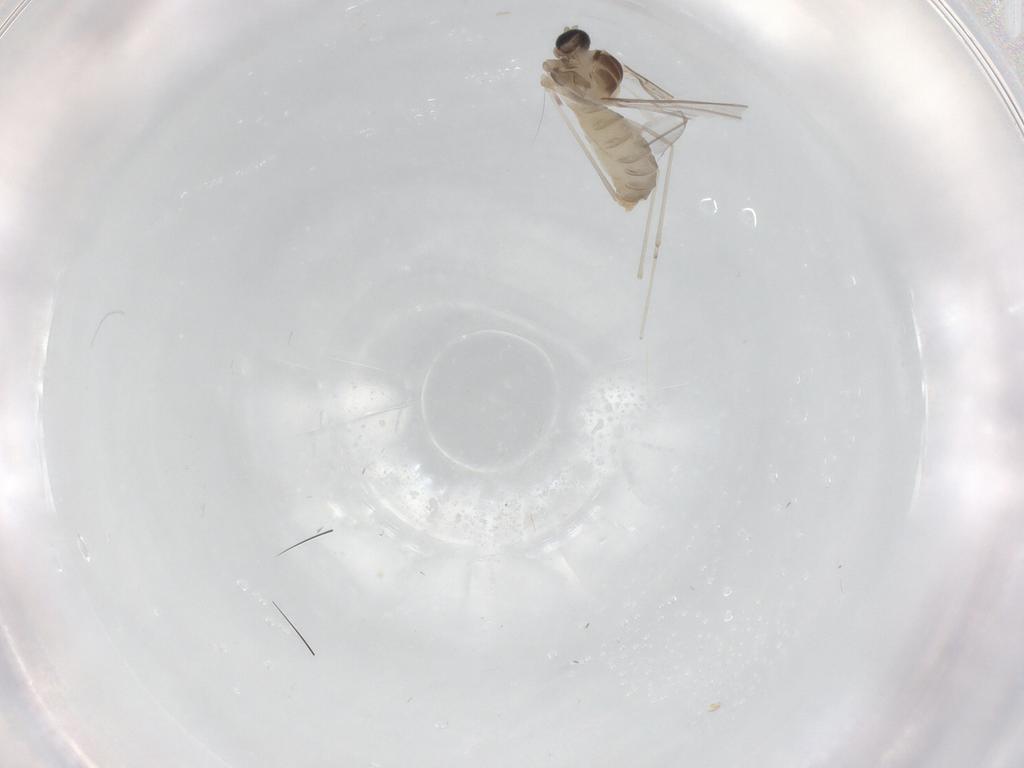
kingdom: Animalia
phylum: Arthropoda
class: Insecta
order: Diptera
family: Cecidomyiidae
